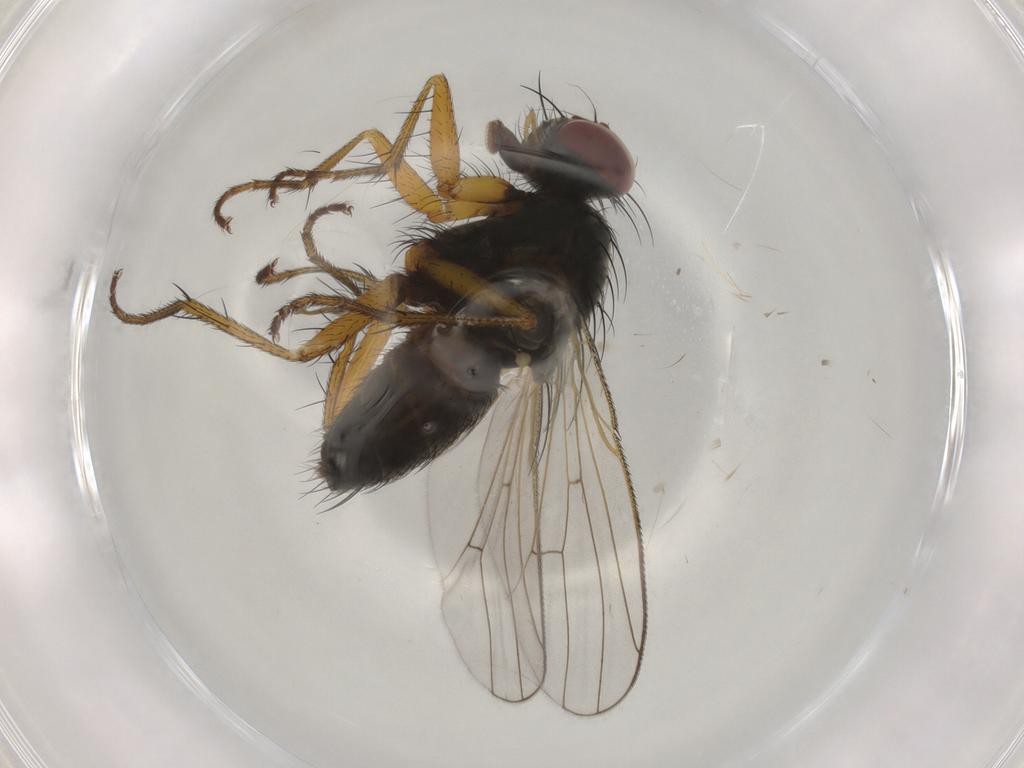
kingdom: Animalia
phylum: Arthropoda
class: Insecta
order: Diptera
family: Muscidae
